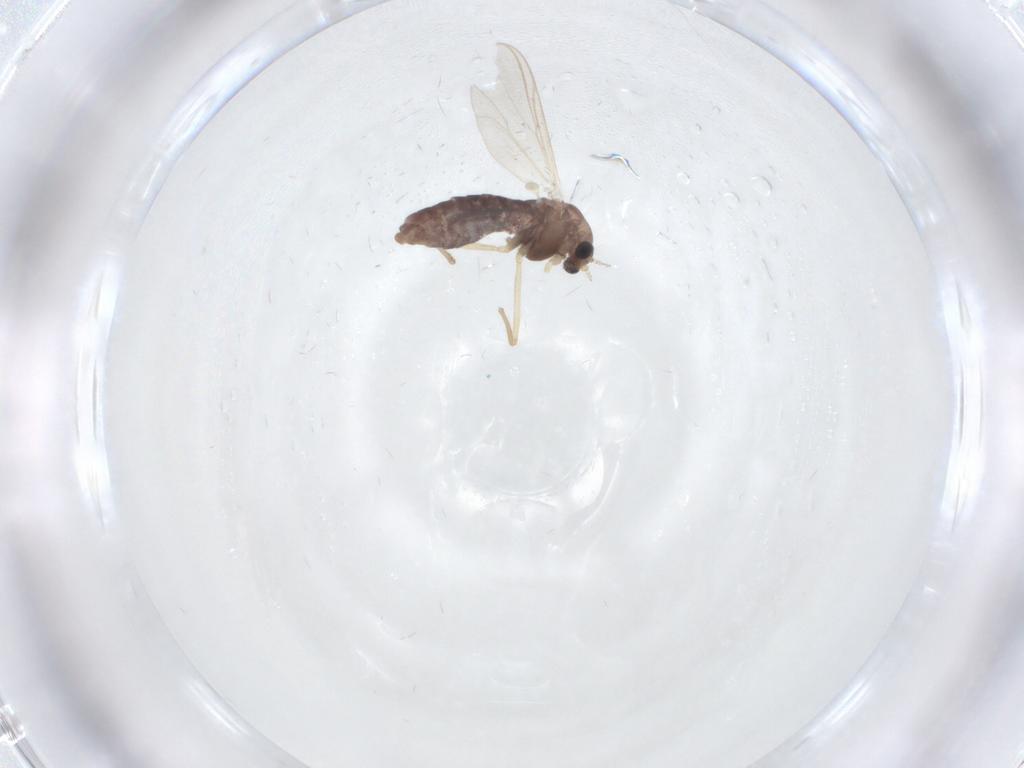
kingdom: Animalia
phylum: Arthropoda
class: Insecta
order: Diptera
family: Chironomidae
